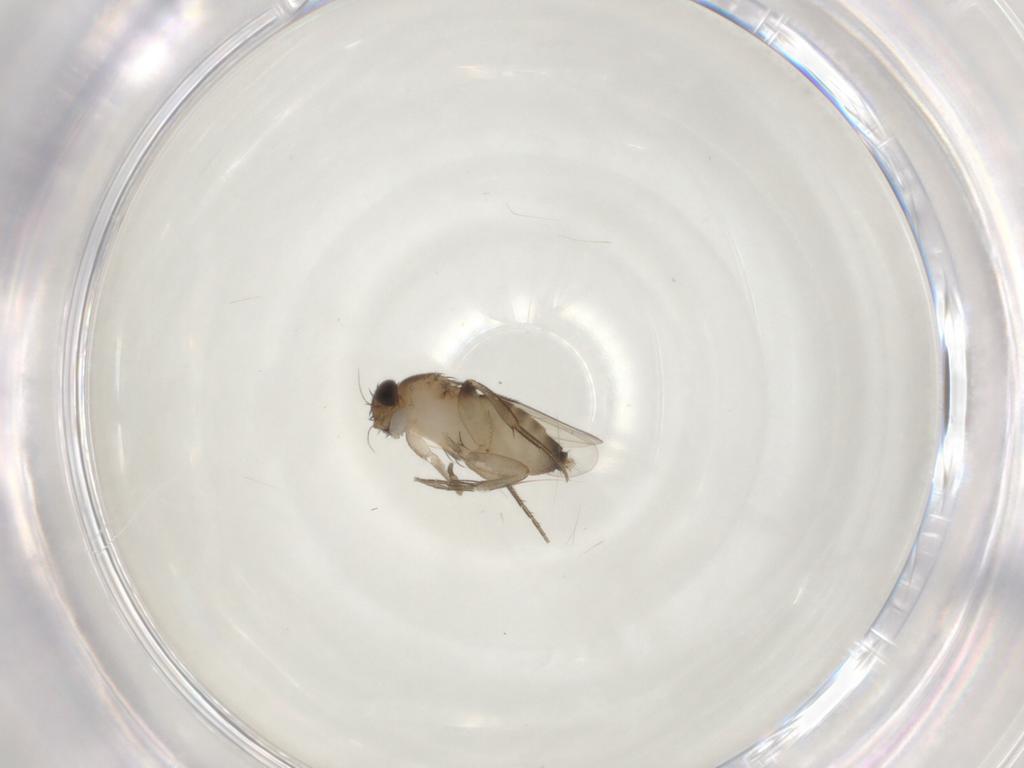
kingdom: Animalia
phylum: Arthropoda
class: Insecta
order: Diptera
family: Phoridae
